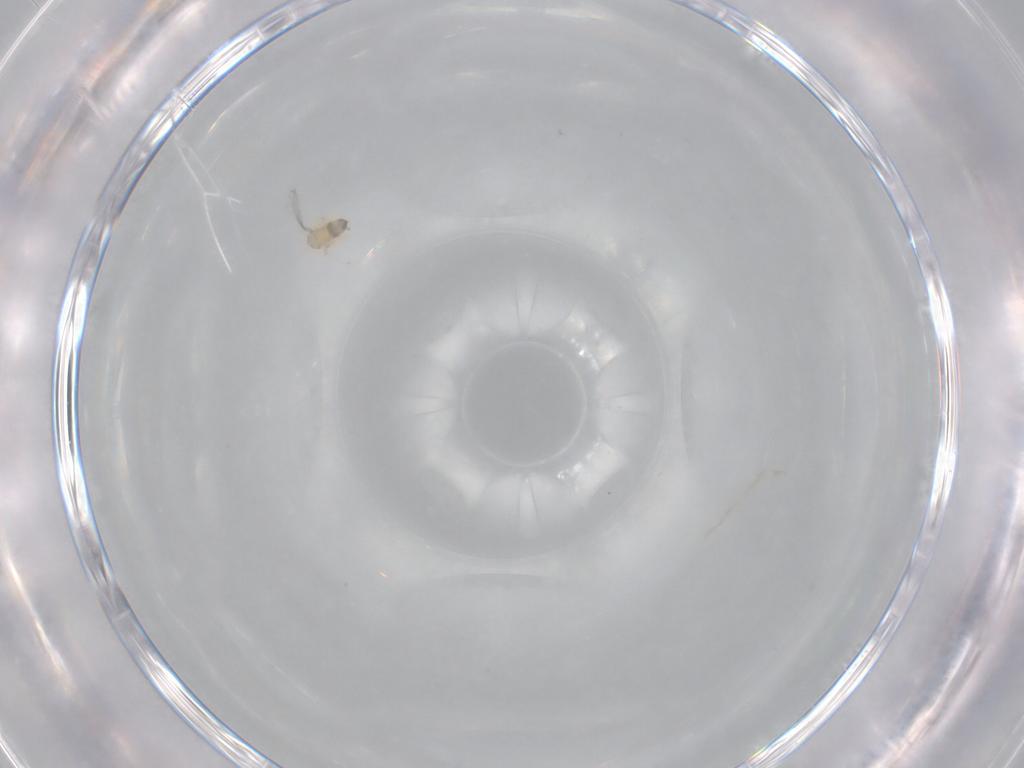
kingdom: Animalia
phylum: Arthropoda
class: Insecta
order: Hymenoptera
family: Trichogrammatidae
